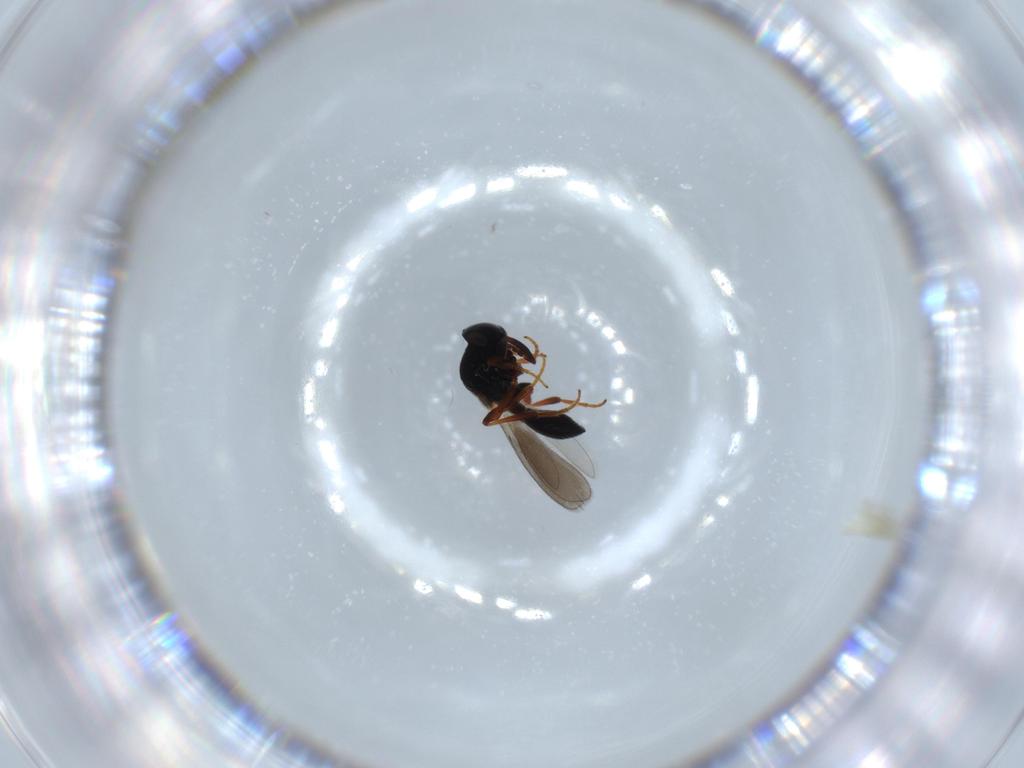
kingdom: Animalia
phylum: Arthropoda
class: Insecta
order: Hymenoptera
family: Platygastridae
